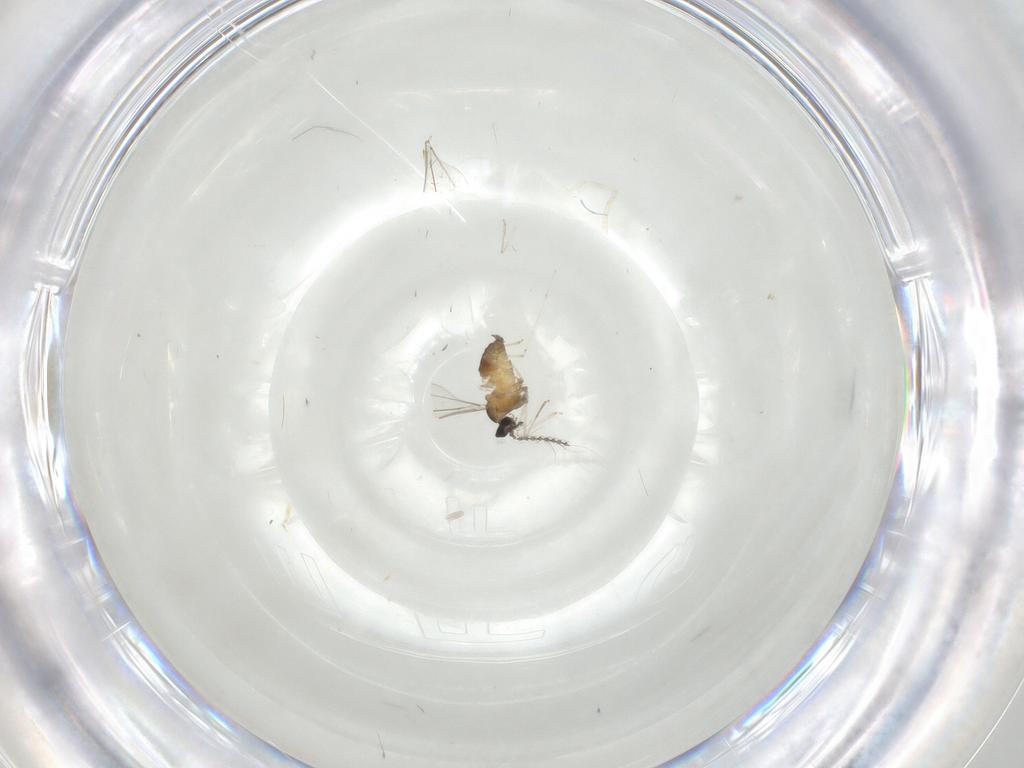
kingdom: Animalia
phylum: Arthropoda
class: Insecta
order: Diptera
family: Cecidomyiidae
